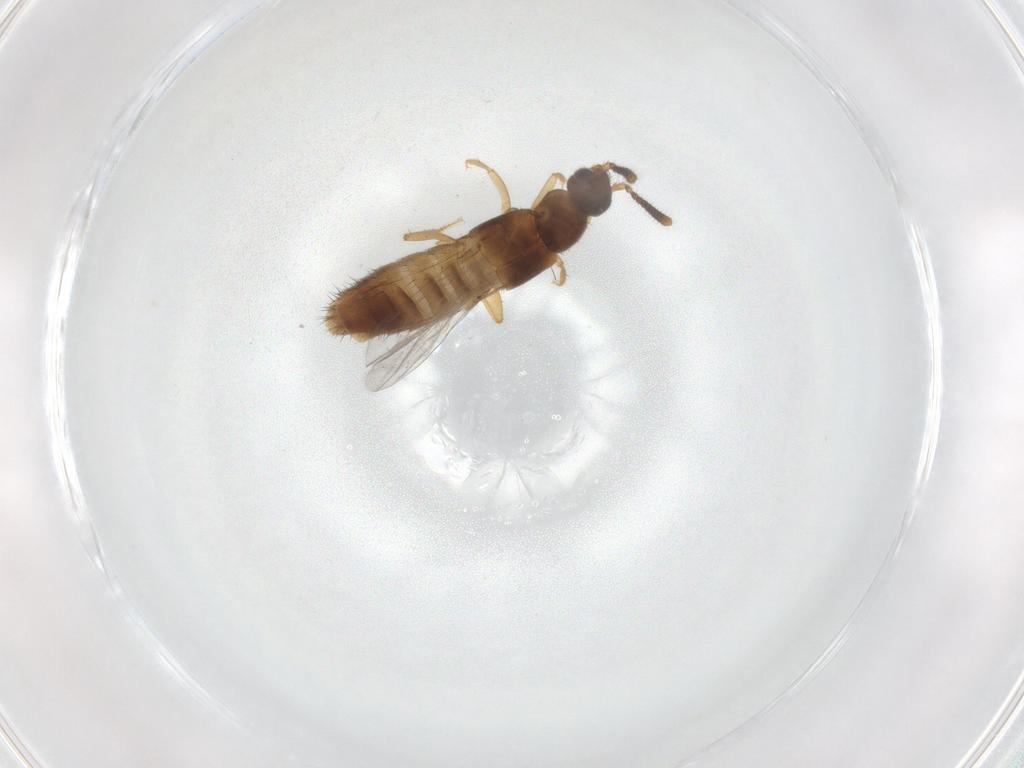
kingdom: Animalia
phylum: Arthropoda
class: Insecta
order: Coleoptera
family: Staphylinidae
